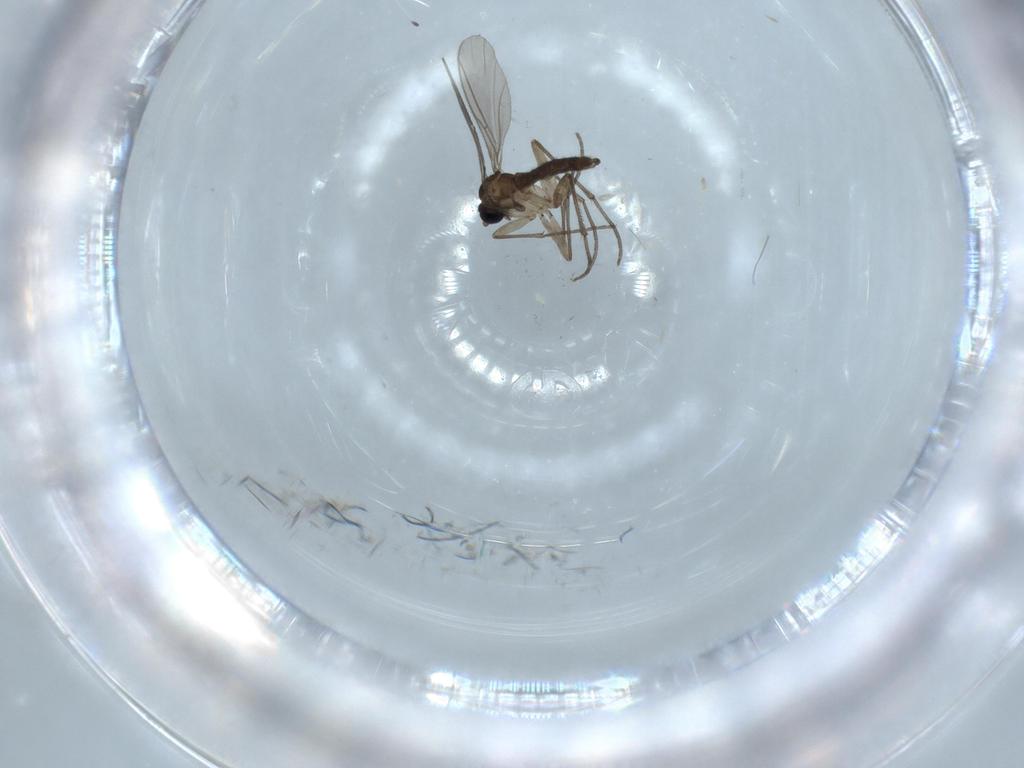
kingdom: Animalia
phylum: Arthropoda
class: Insecta
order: Diptera
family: Sciaridae
